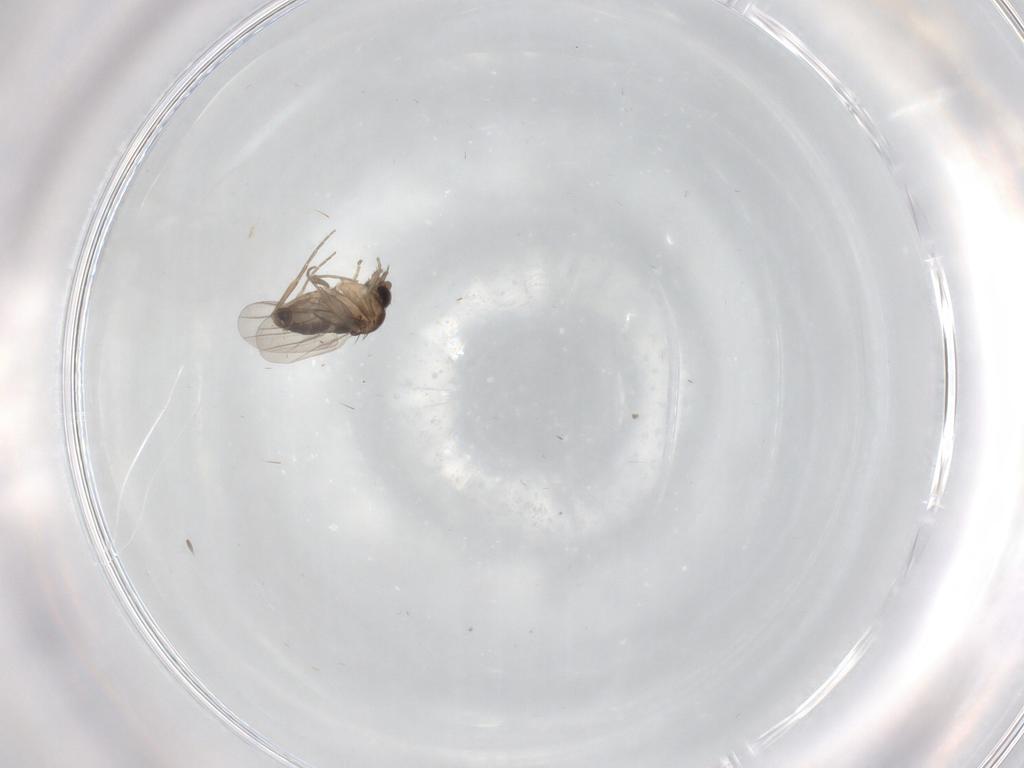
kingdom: Animalia
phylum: Arthropoda
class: Insecta
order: Diptera
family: Phoridae
